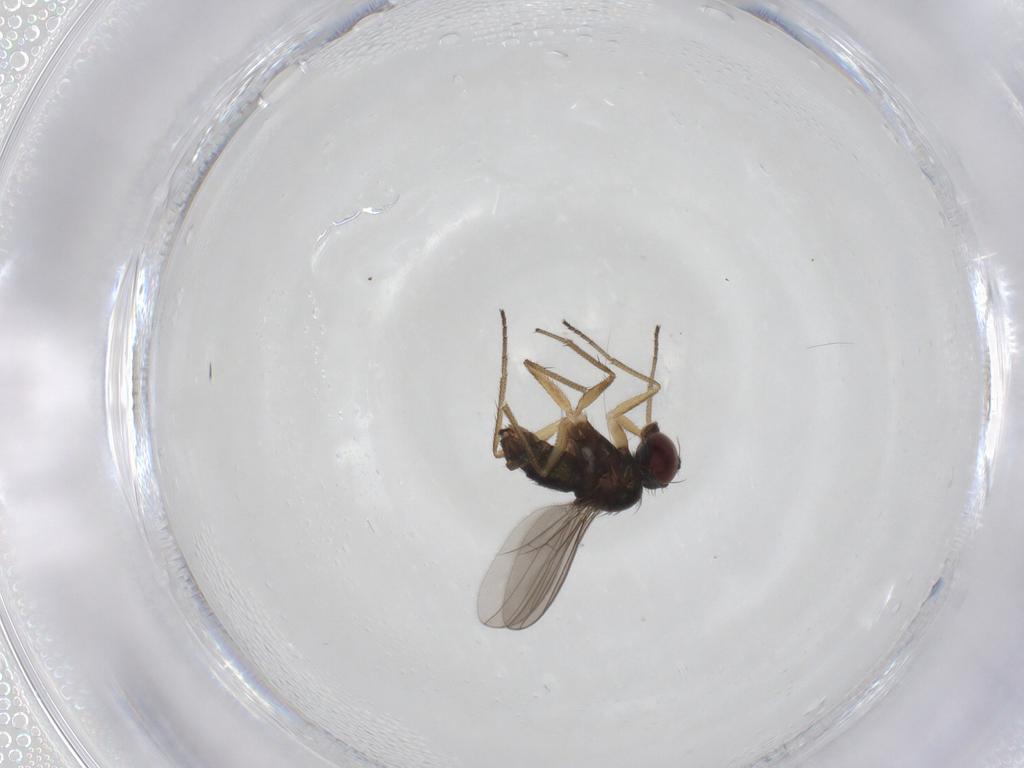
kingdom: Animalia
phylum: Arthropoda
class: Insecta
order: Diptera
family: Dolichopodidae
